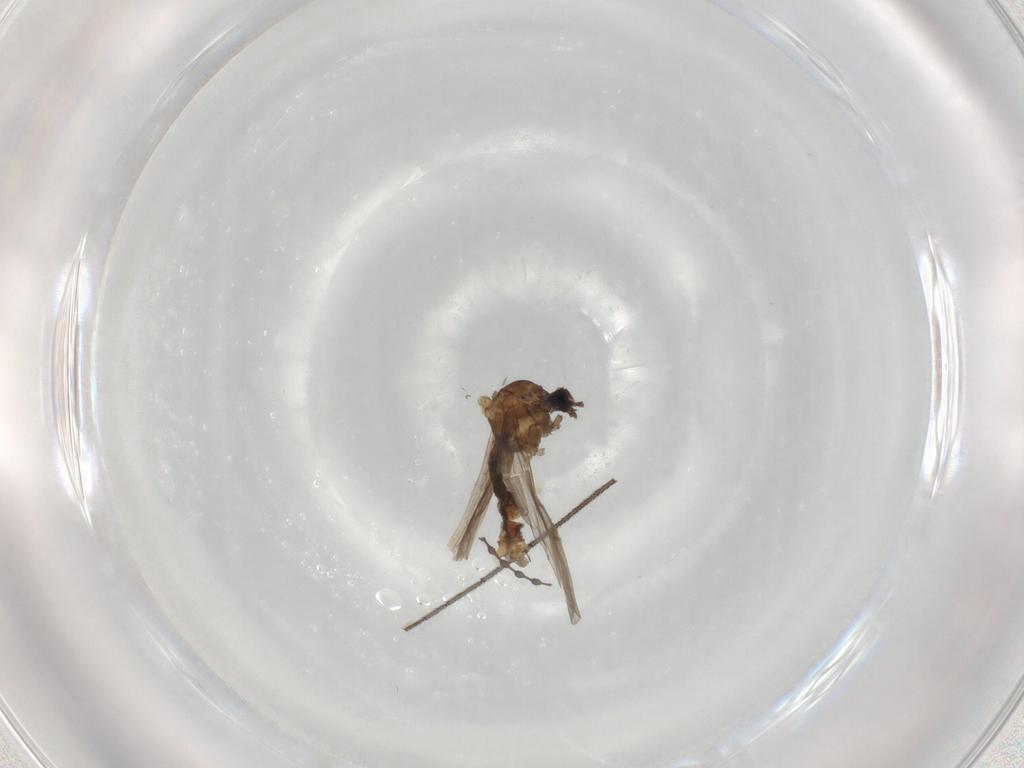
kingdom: Animalia
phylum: Arthropoda
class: Insecta
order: Diptera
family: Limoniidae
